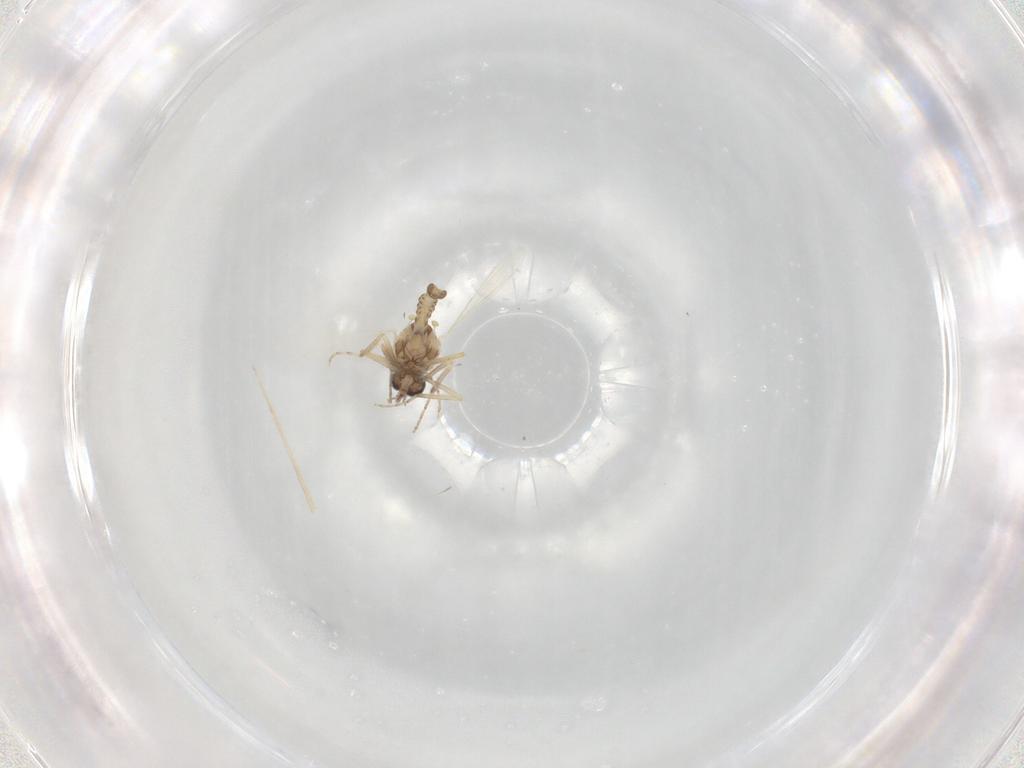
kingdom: Animalia
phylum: Arthropoda
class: Insecta
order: Diptera
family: Agromyzidae
